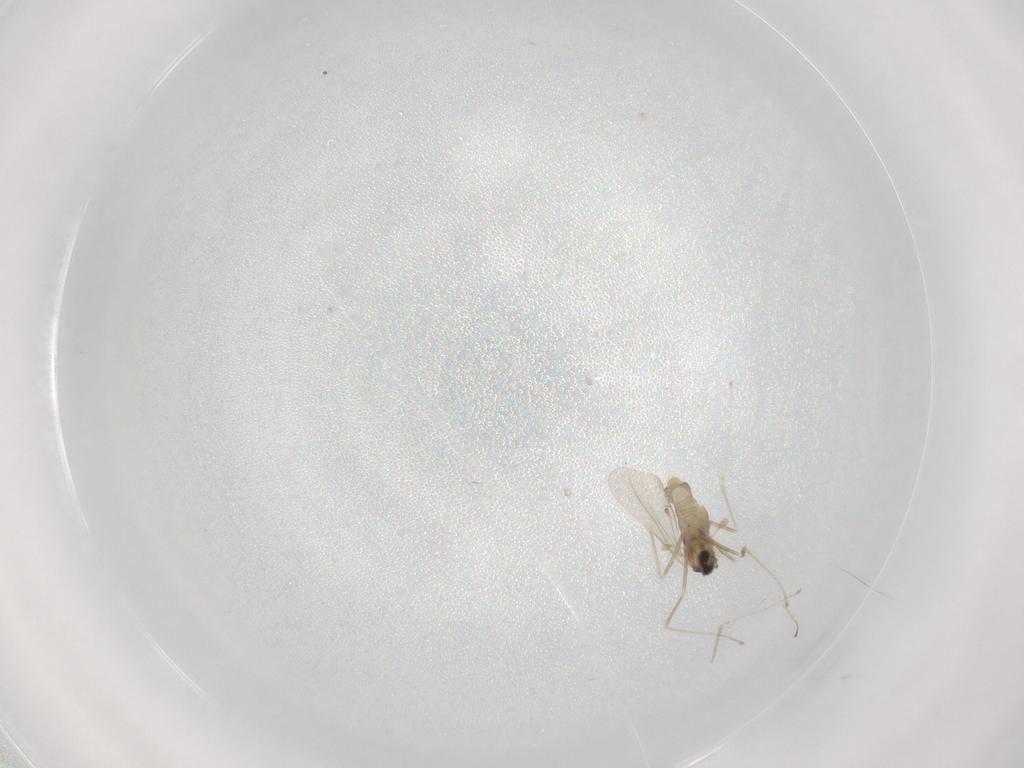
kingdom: Animalia
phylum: Arthropoda
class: Insecta
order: Diptera
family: Cecidomyiidae
